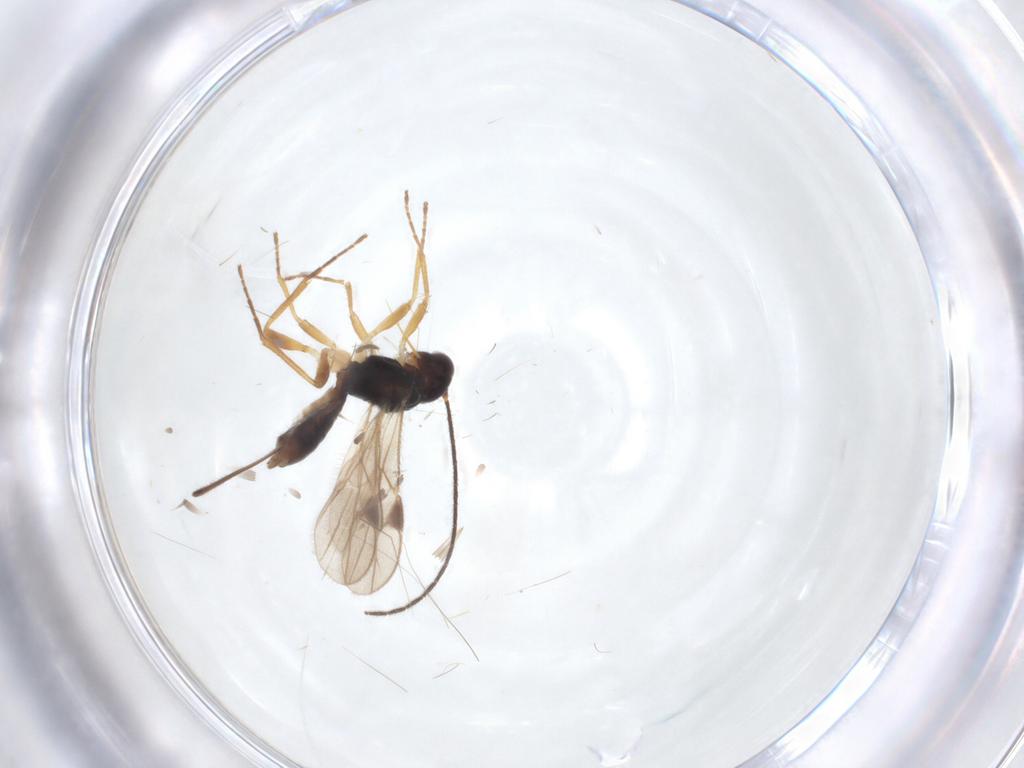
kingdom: Animalia
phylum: Arthropoda
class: Insecta
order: Hymenoptera
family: Braconidae
